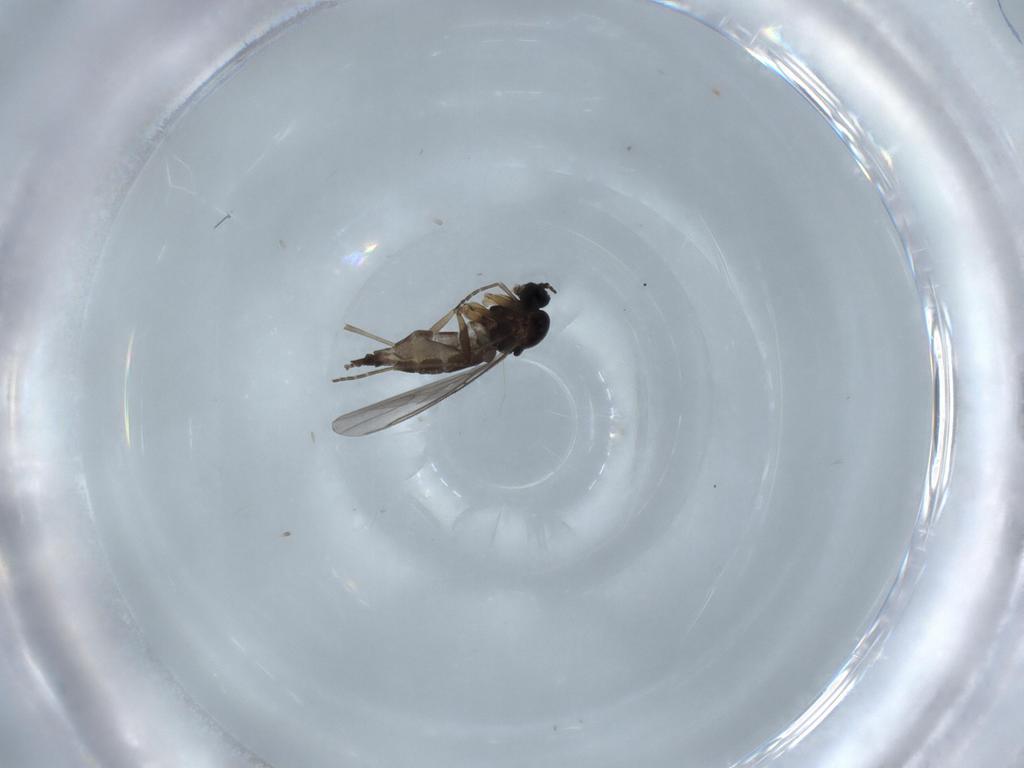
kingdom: Animalia
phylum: Arthropoda
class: Insecta
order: Diptera
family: Sciaridae
